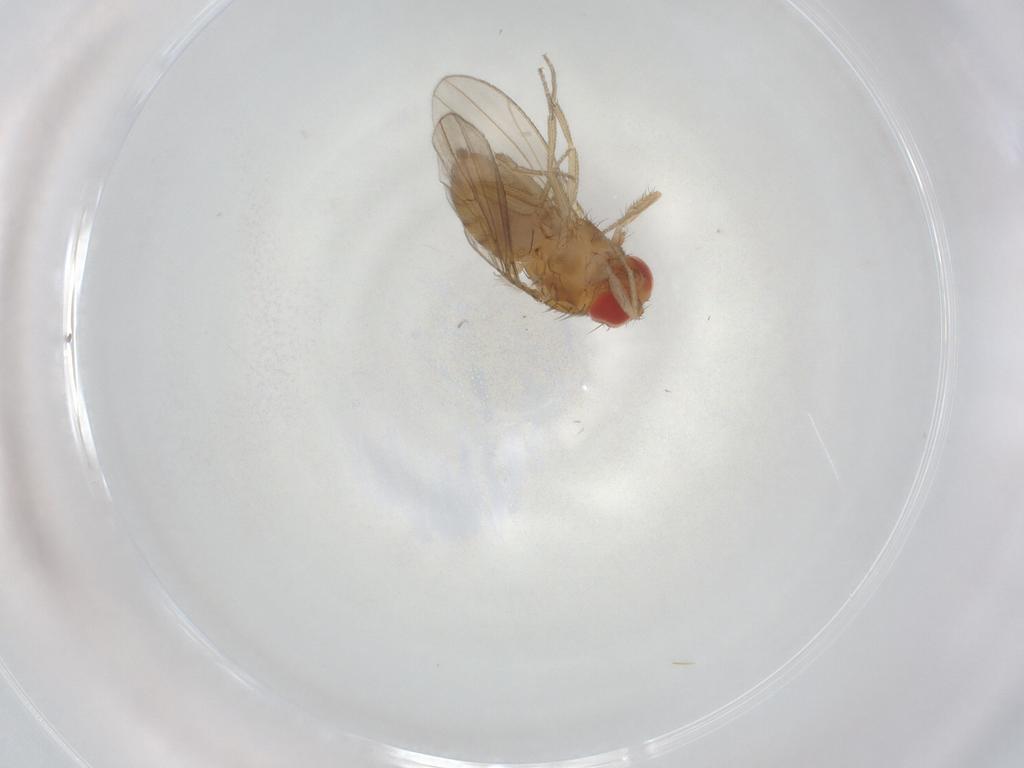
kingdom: Animalia
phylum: Arthropoda
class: Insecta
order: Diptera
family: Drosophilidae
